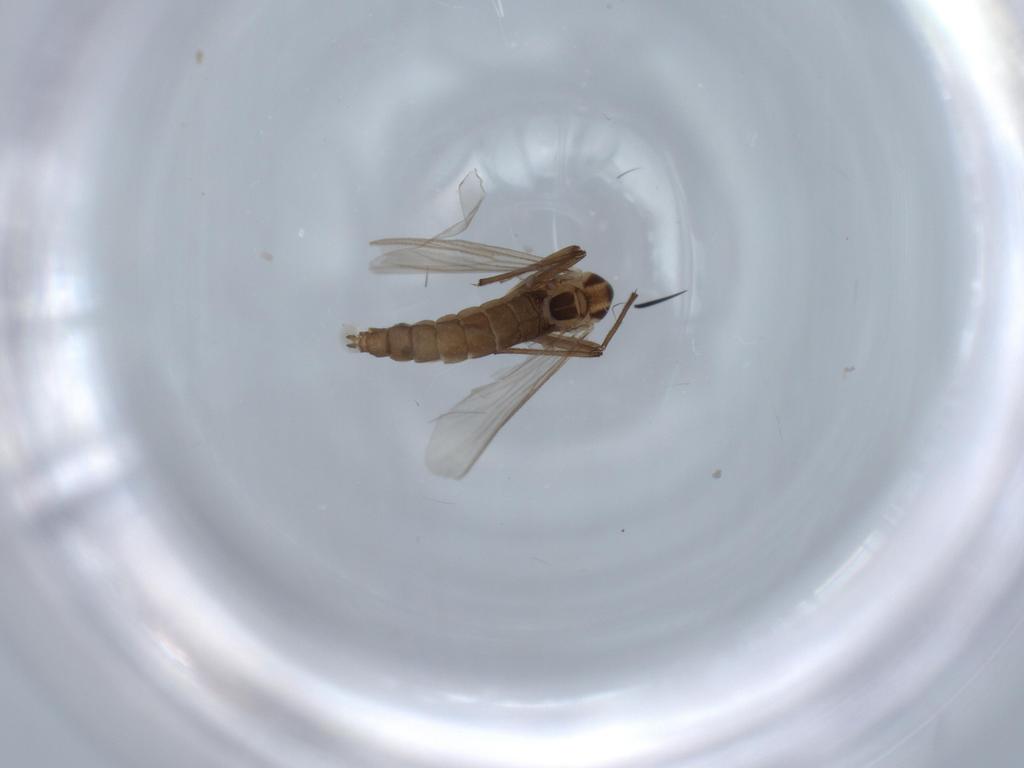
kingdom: Animalia
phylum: Arthropoda
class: Insecta
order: Diptera
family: Chironomidae
